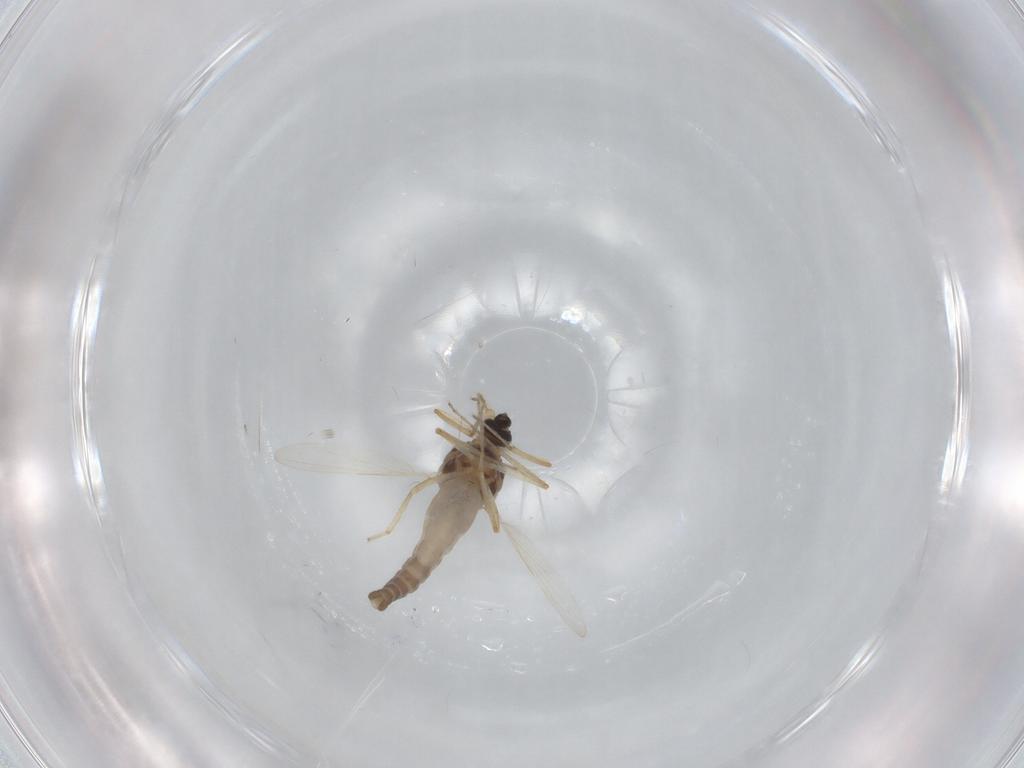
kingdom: Animalia
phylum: Arthropoda
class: Insecta
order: Diptera
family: Ceratopogonidae
